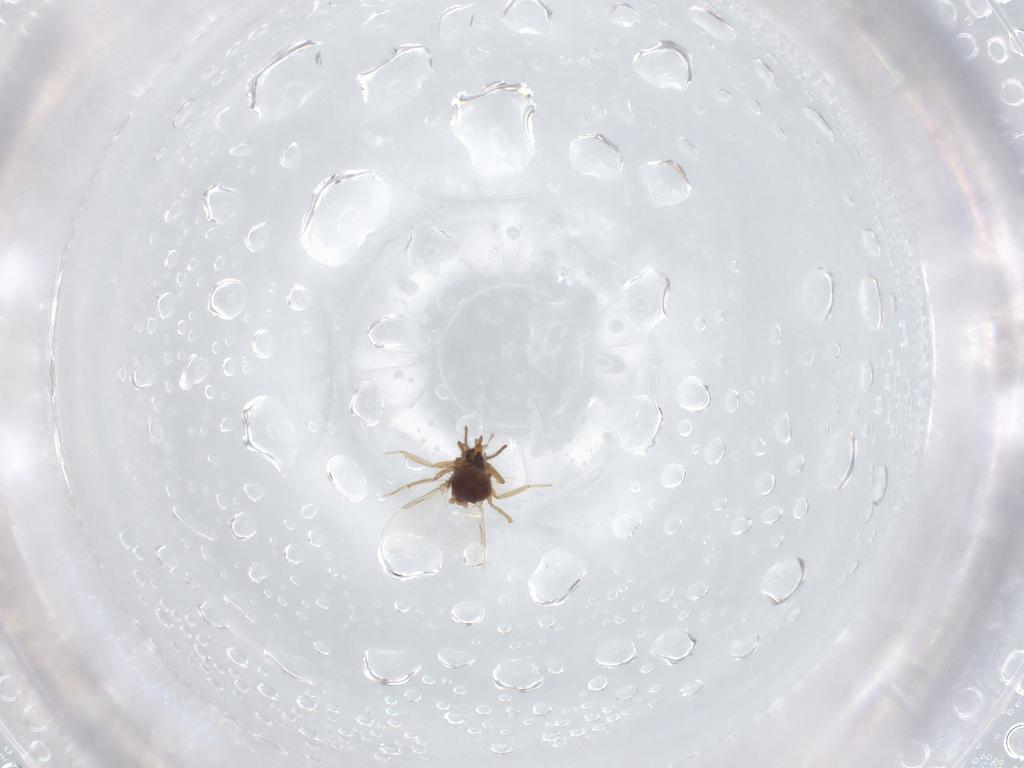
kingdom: Animalia
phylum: Arthropoda
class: Insecta
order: Diptera
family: Ceratopogonidae
